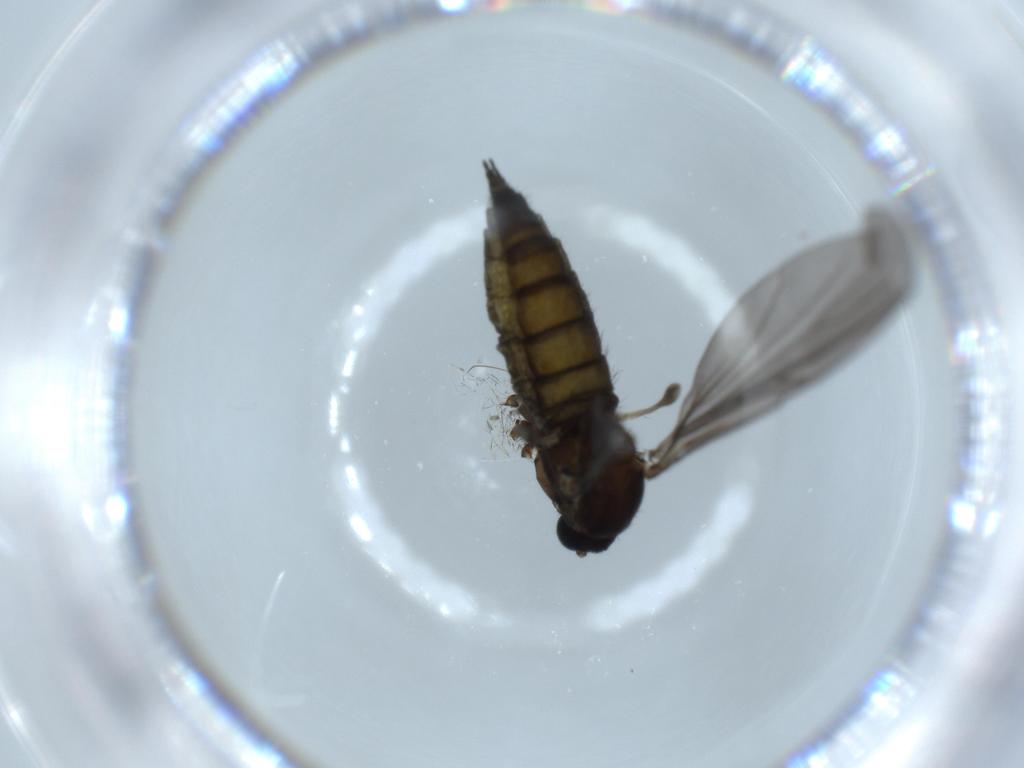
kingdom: Animalia
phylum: Arthropoda
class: Insecta
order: Diptera
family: Sciaridae
